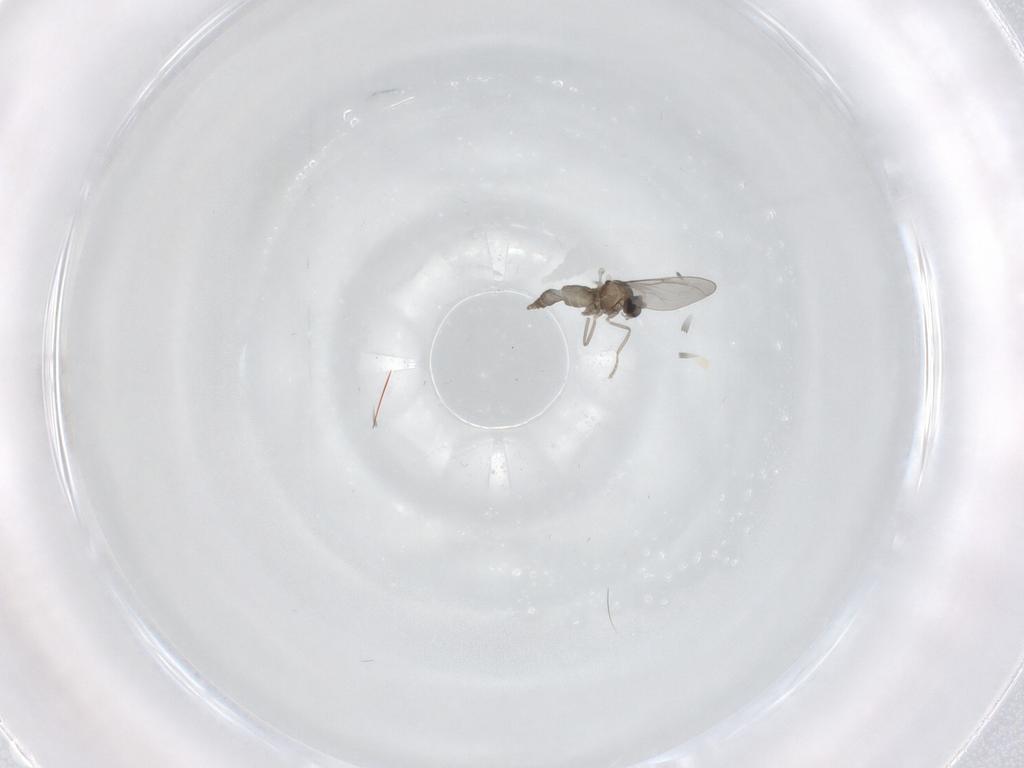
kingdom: Animalia
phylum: Arthropoda
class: Insecta
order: Diptera
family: Cecidomyiidae
